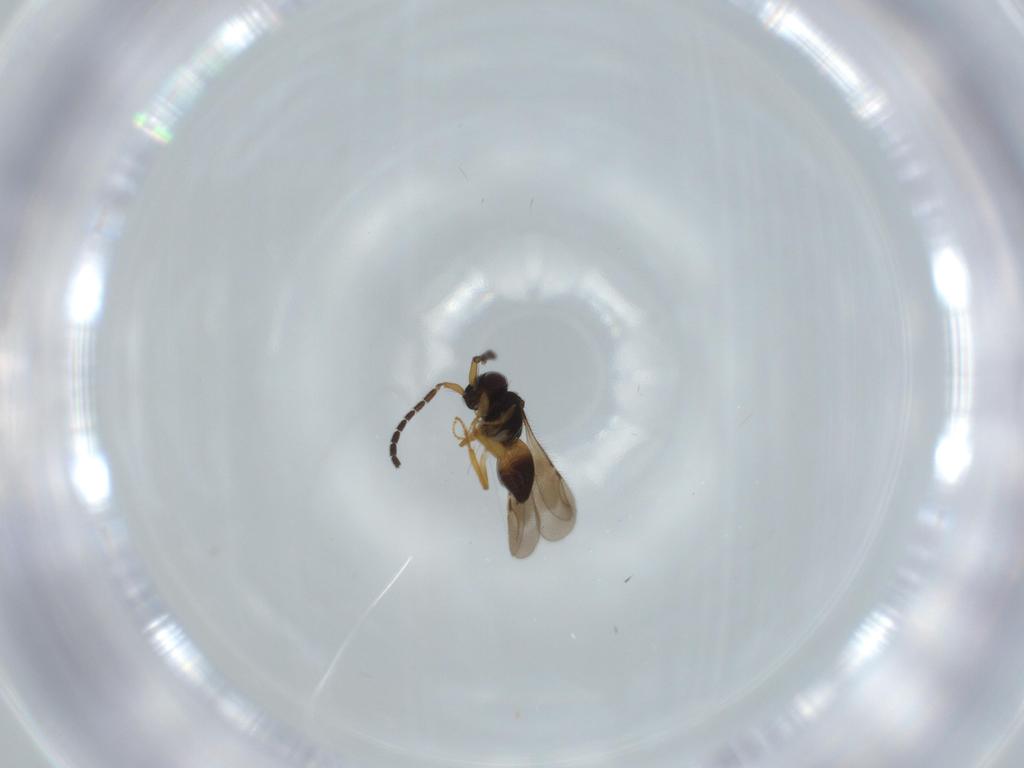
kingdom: Animalia
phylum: Arthropoda
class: Insecta
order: Hymenoptera
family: Ceraphronidae
